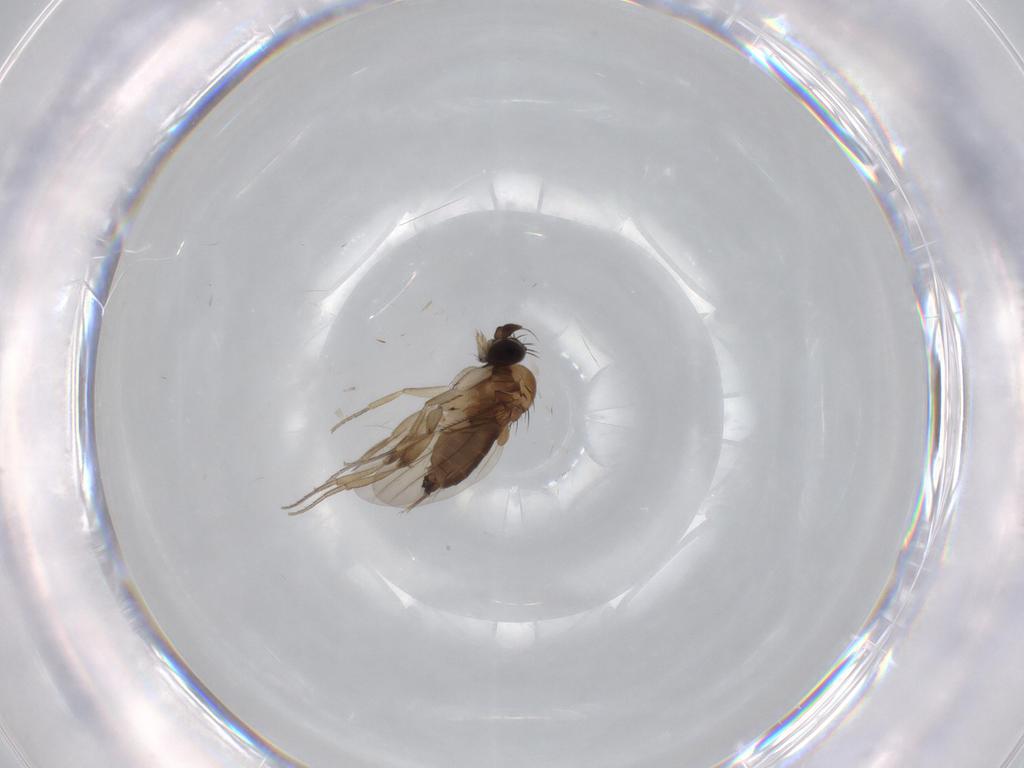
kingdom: Animalia
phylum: Arthropoda
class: Insecta
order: Diptera
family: Phoridae
